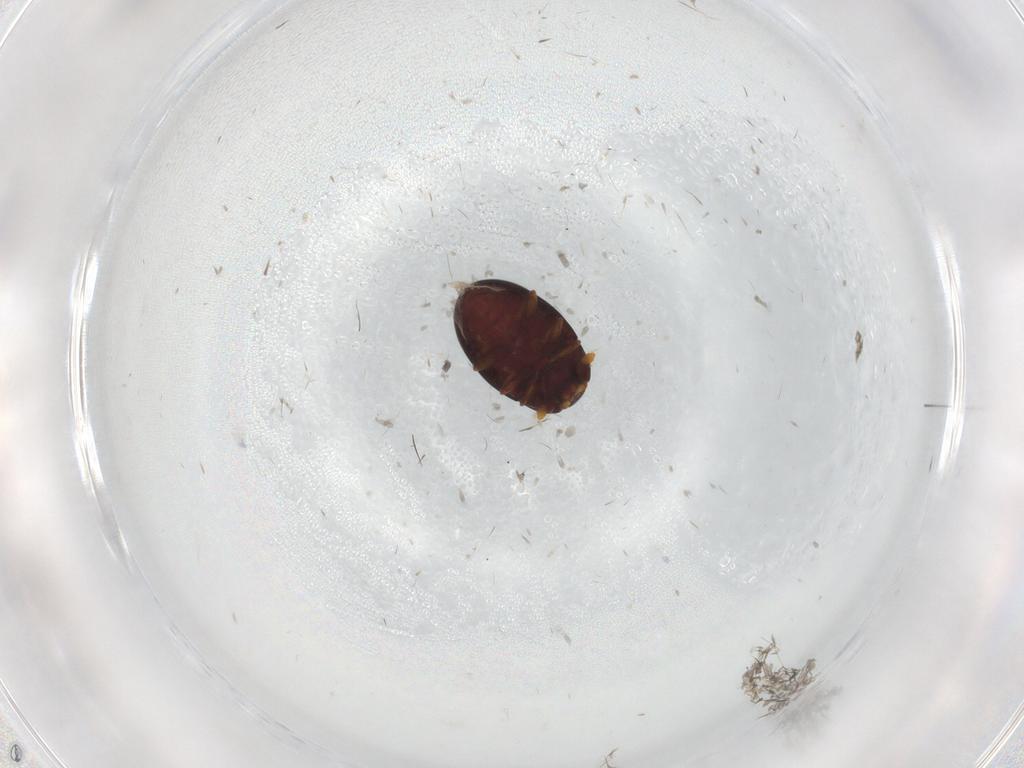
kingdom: Animalia
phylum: Arthropoda
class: Insecta
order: Coleoptera
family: Cerylonidae
